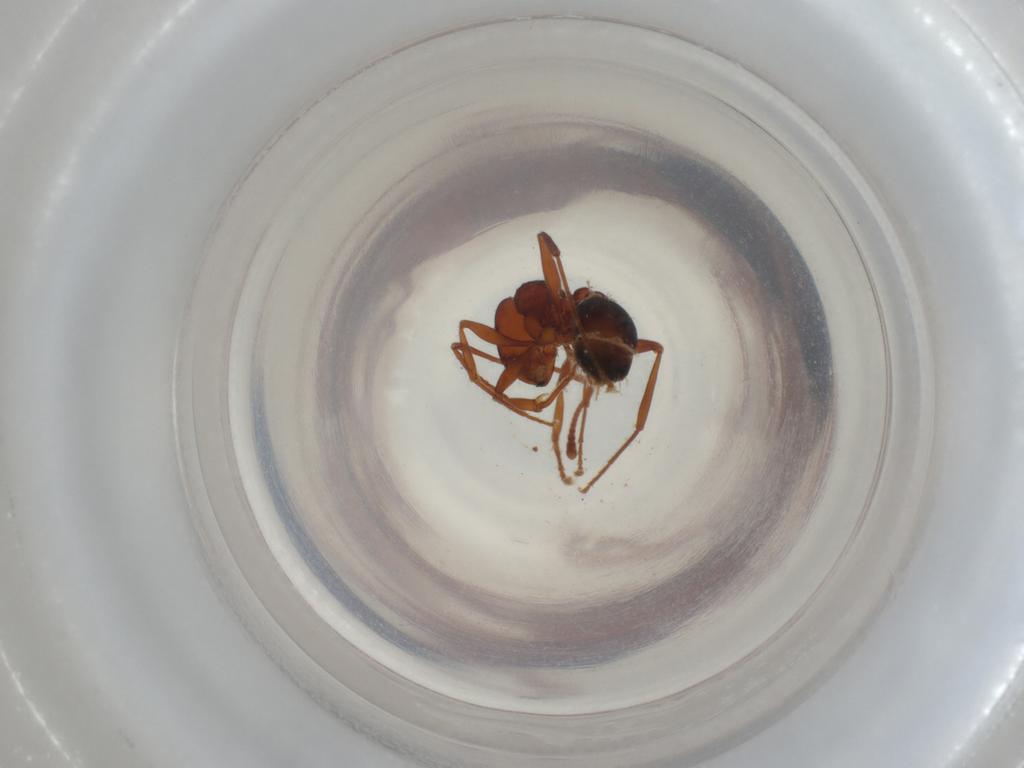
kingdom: Animalia
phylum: Arthropoda
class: Insecta
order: Hymenoptera
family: Formicidae
